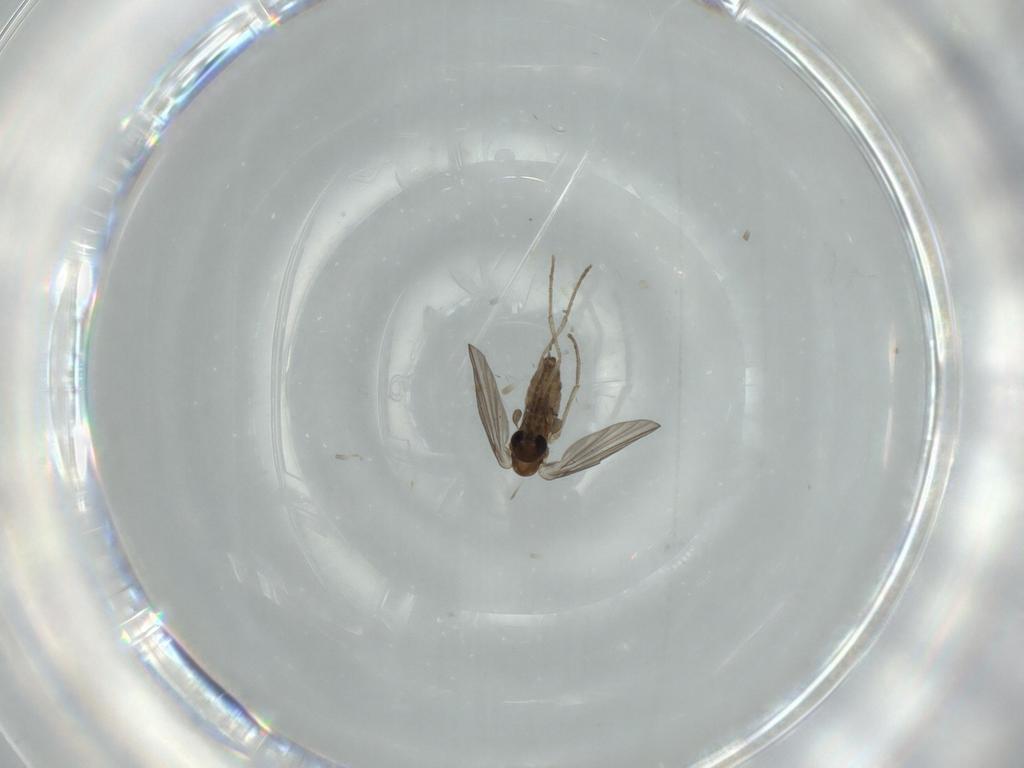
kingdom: Animalia
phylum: Arthropoda
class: Insecta
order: Diptera
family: Psychodidae
